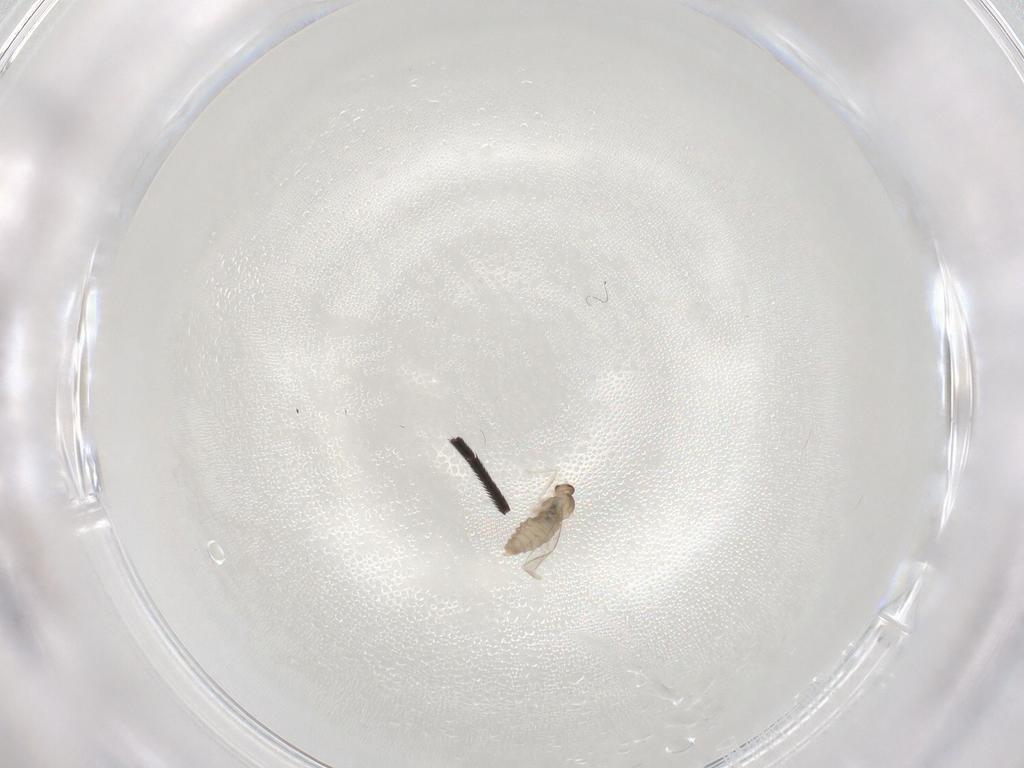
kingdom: Animalia
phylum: Arthropoda
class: Insecta
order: Diptera
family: Tachinidae
